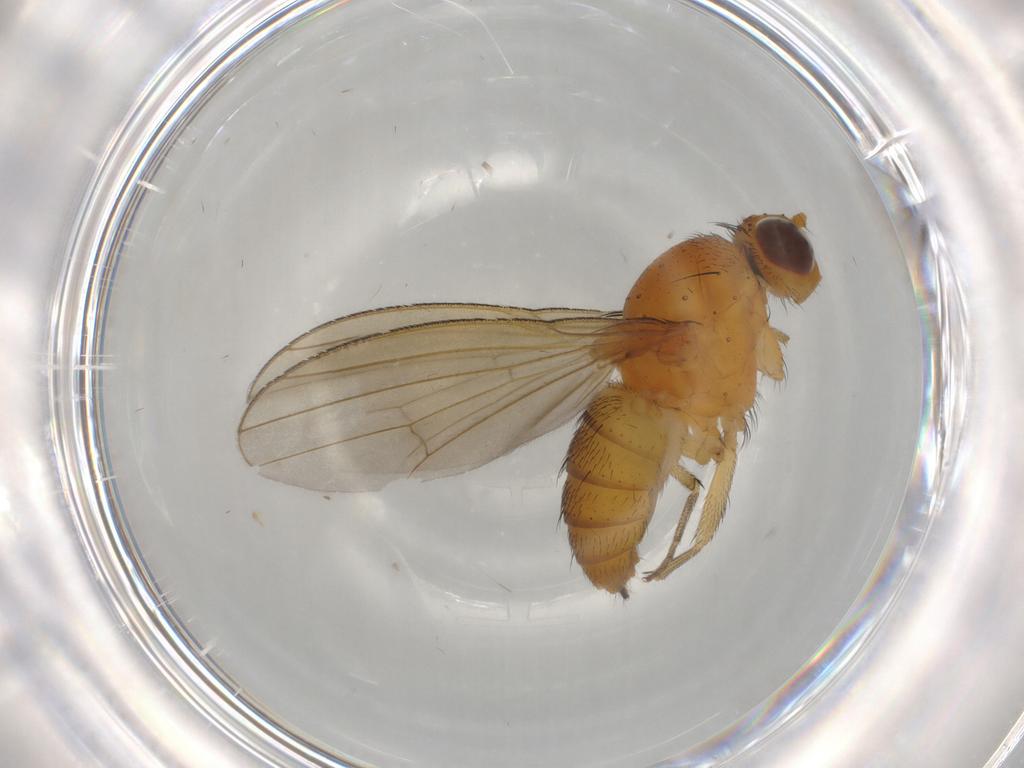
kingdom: Animalia
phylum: Arthropoda
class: Insecta
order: Diptera
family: Lauxaniidae
